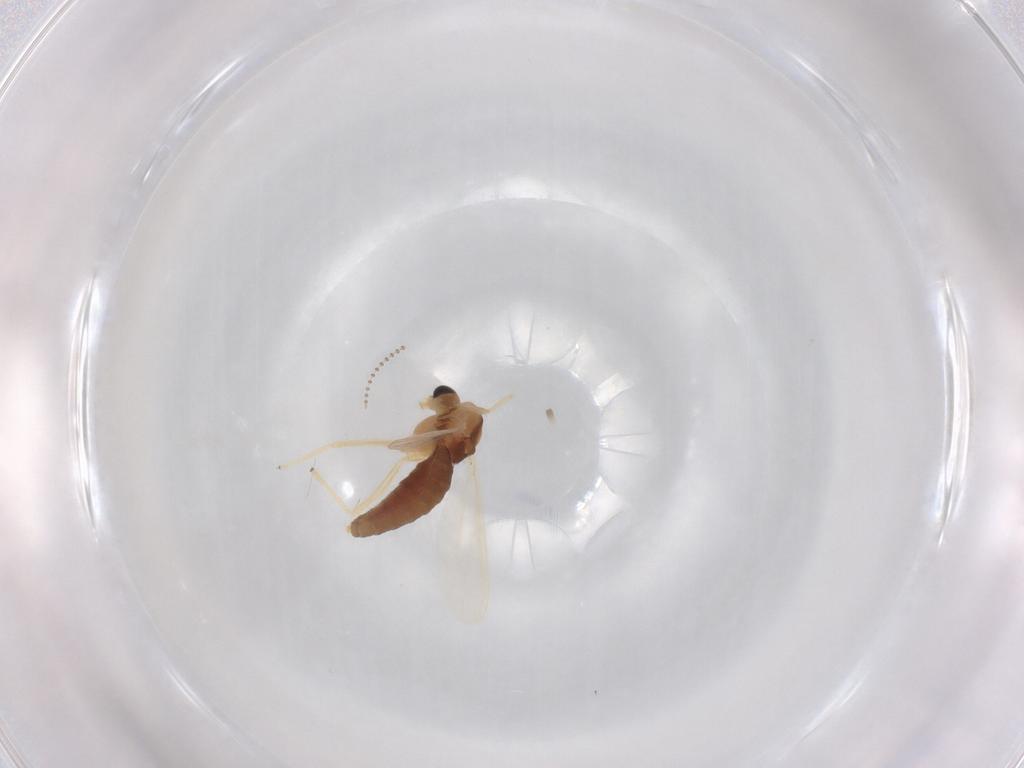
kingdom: Animalia
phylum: Arthropoda
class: Insecta
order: Diptera
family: Psychodidae
